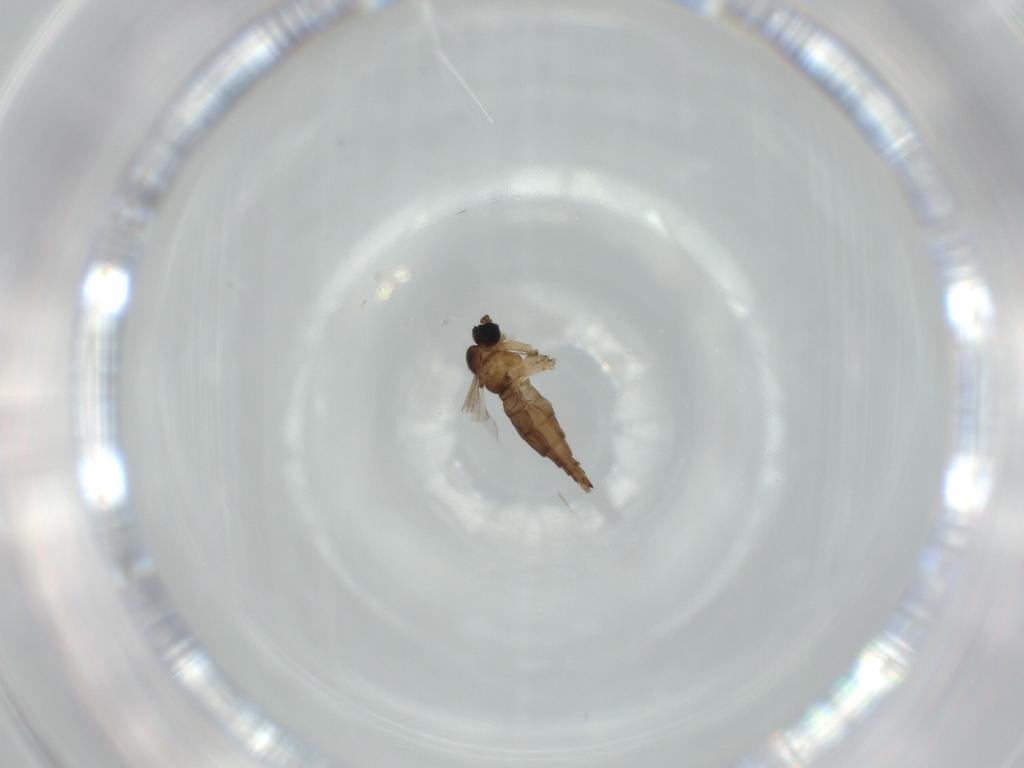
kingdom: Animalia
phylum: Arthropoda
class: Insecta
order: Diptera
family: Sciaridae
